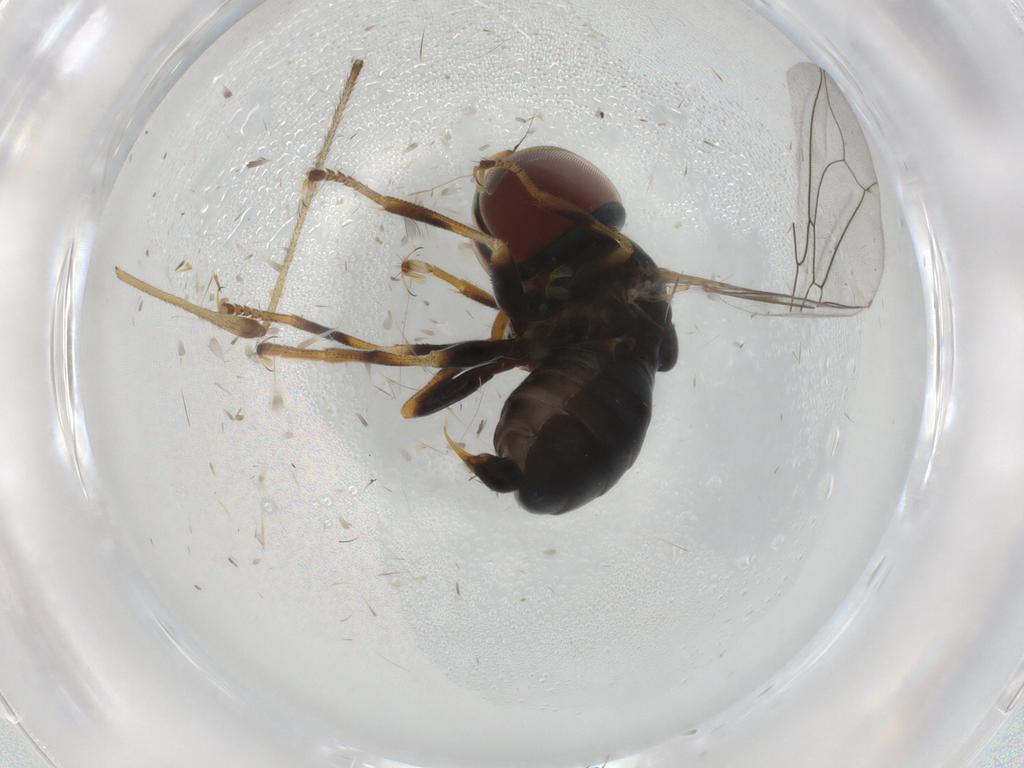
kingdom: Animalia
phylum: Arthropoda
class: Insecta
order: Diptera
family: Pipunculidae
